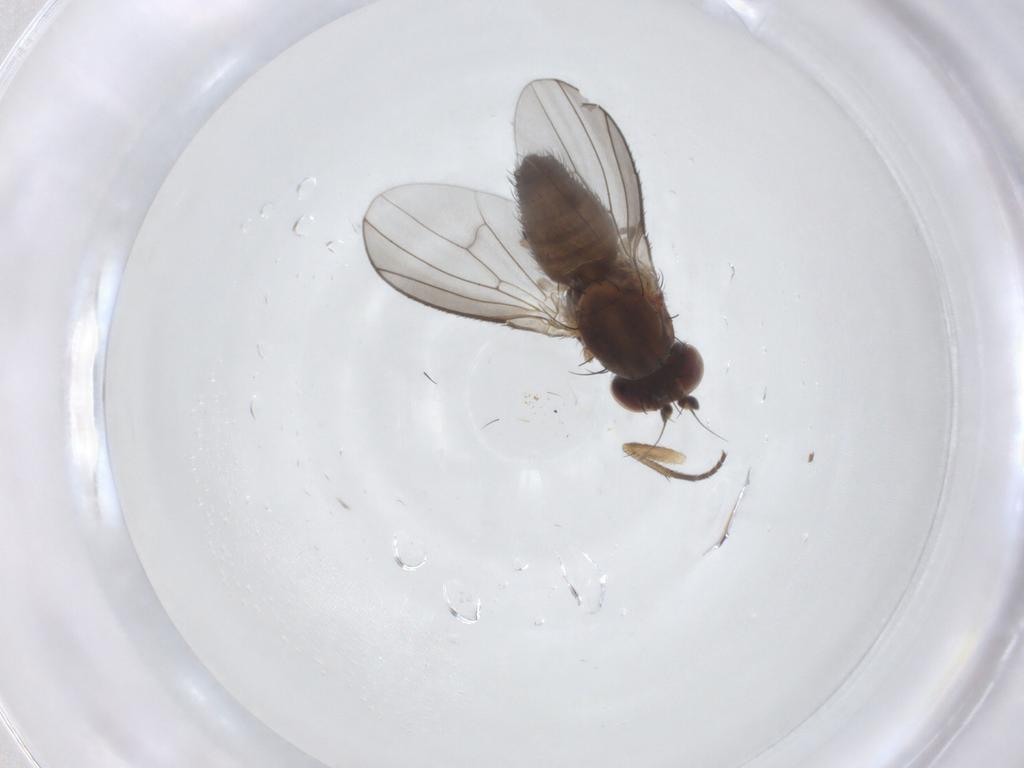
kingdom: Animalia
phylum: Arthropoda
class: Insecta
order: Diptera
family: Heleomyzidae
